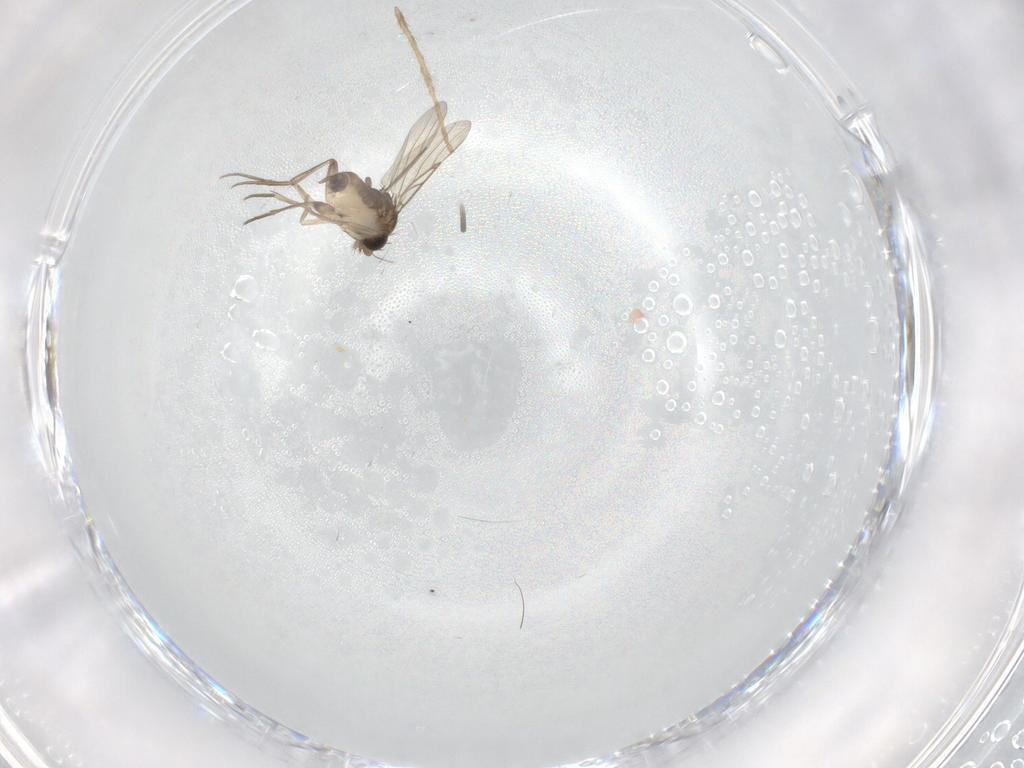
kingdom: Animalia
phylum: Arthropoda
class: Insecta
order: Diptera
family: Phoridae
